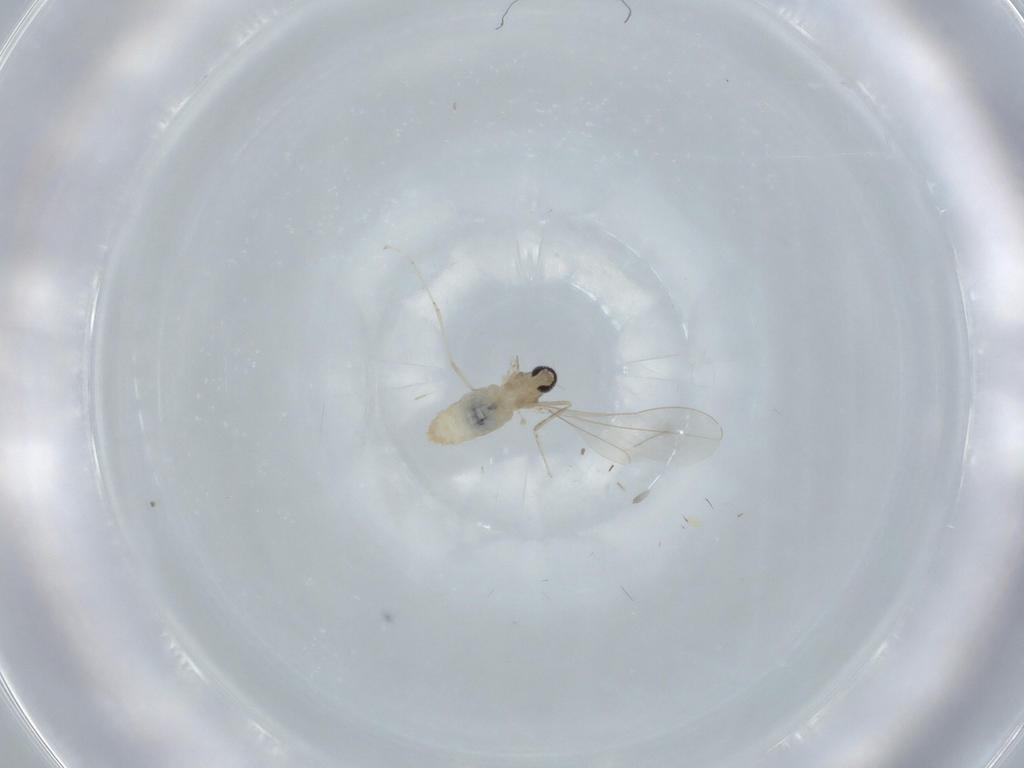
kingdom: Animalia
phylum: Arthropoda
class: Insecta
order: Diptera
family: Cecidomyiidae
